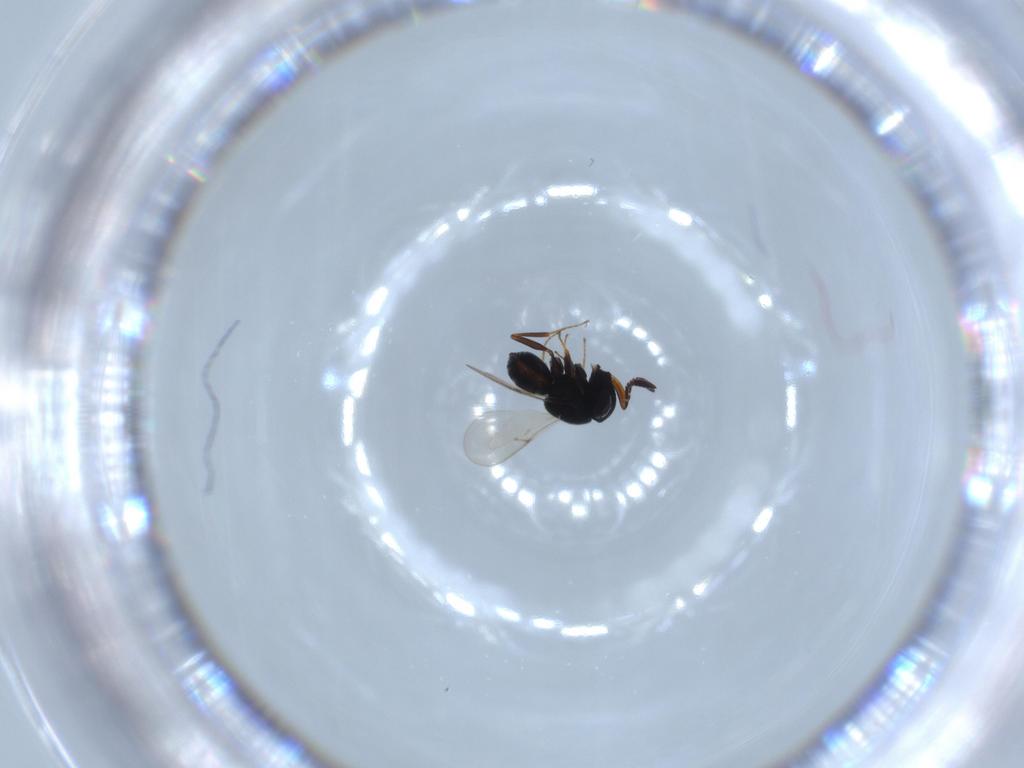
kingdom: Animalia
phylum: Arthropoda
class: Insecta
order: Hymenoptera
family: Scelionidae
